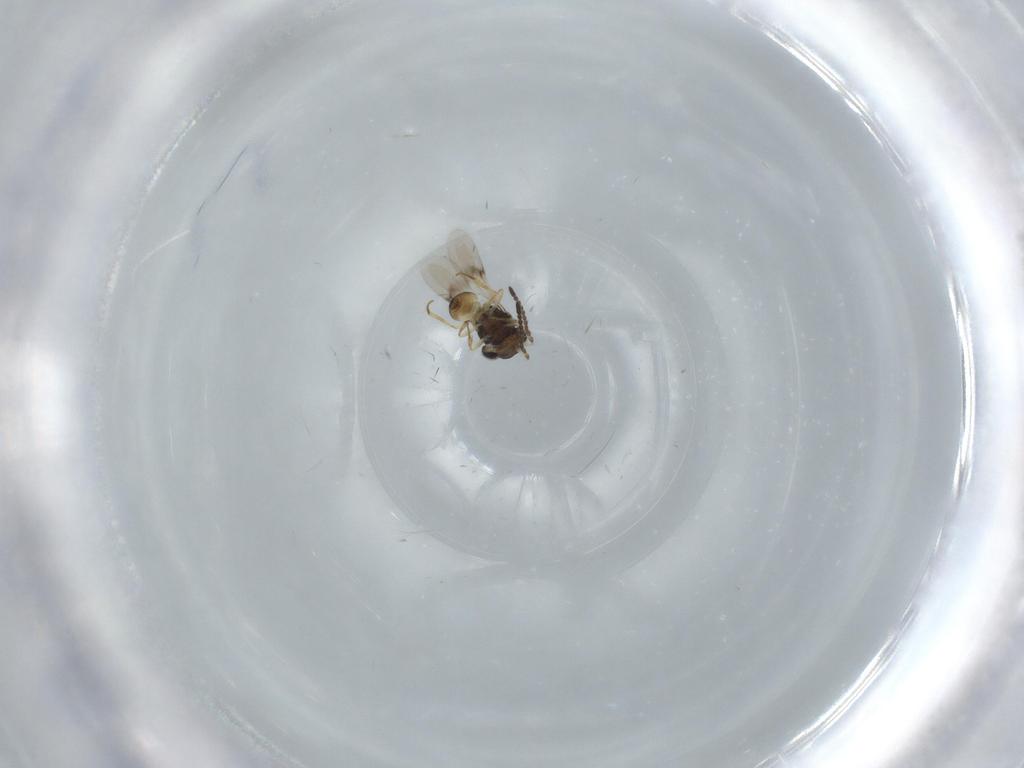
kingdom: Animalia
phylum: Arthropoda
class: Insecta
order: Hymenoptera
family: Scelionidae
